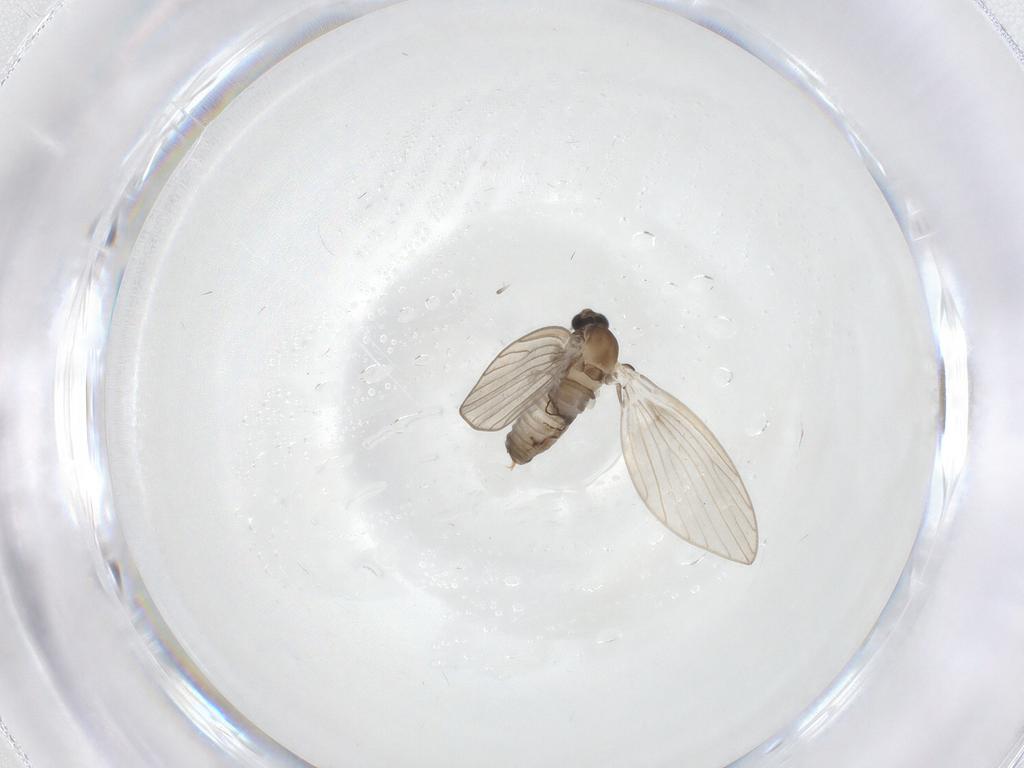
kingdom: Animalia
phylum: Arthropoda
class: Insecta
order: Diptera
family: Psychodidae
